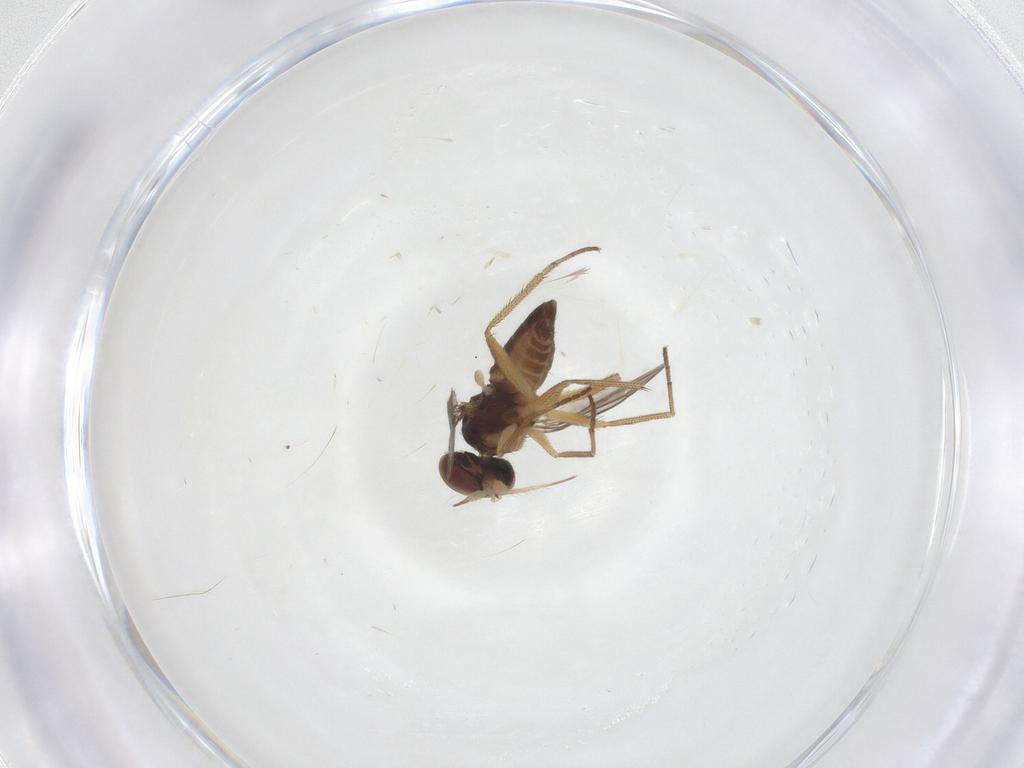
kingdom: Animalia
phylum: Arthropoda
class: Insecta
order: Diptera
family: Dolichopodidae
